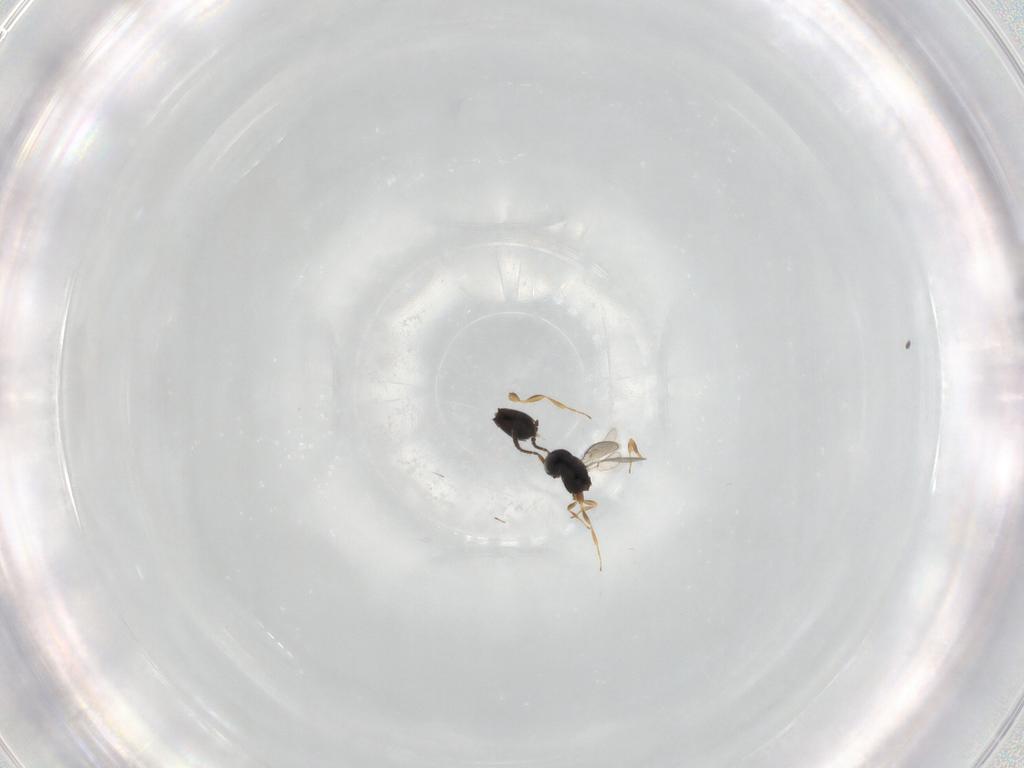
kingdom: Animalia
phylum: Arthropoda
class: Insecta
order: Hymenoptera
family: Scelionidae
